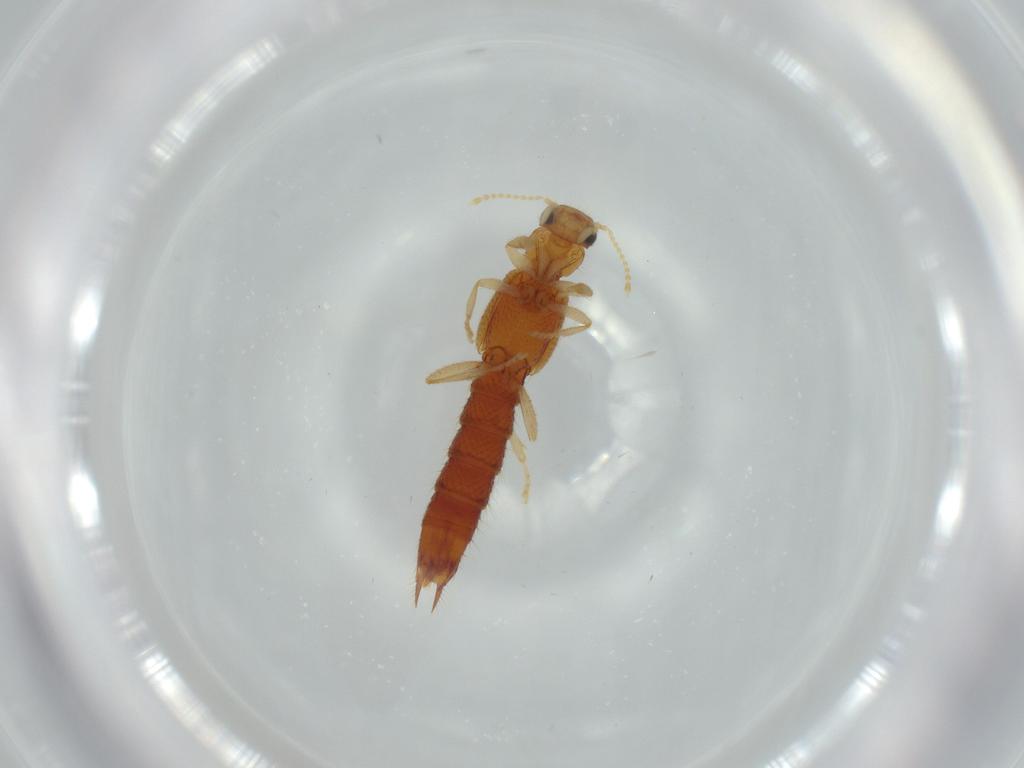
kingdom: Animalia
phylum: Arthropoda
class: Insecta
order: Coleoptera
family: Staphylinidae
